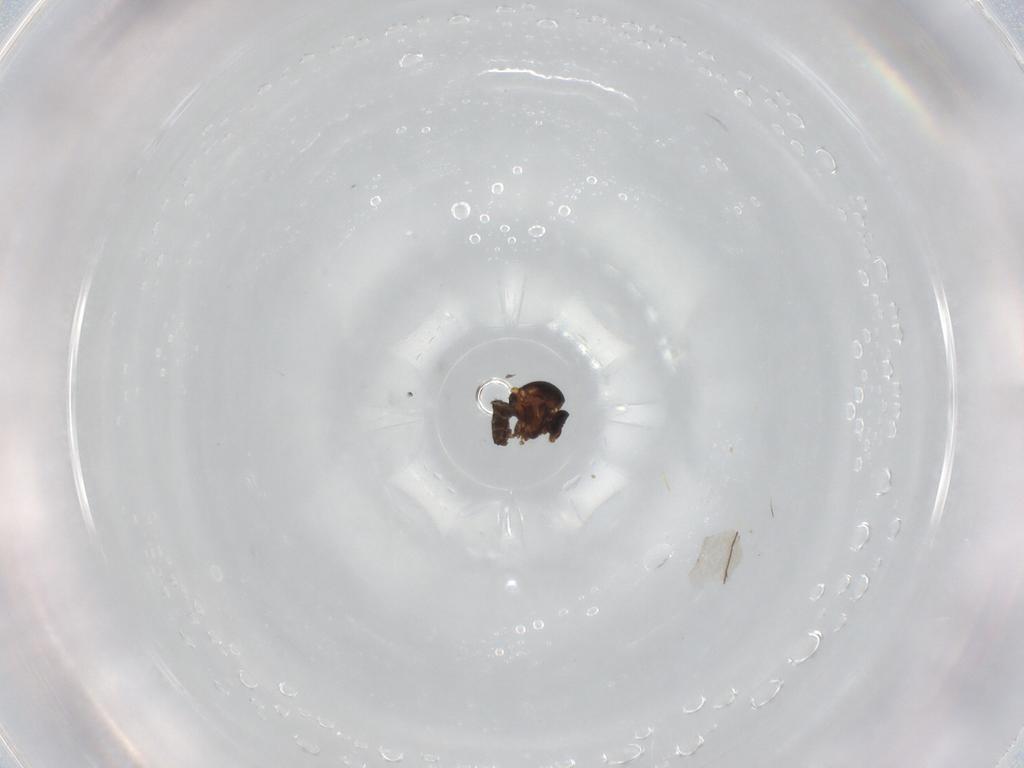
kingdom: Animalia
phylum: Arthropoda
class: Insecta
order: Diptera
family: Ceratopogonidae
